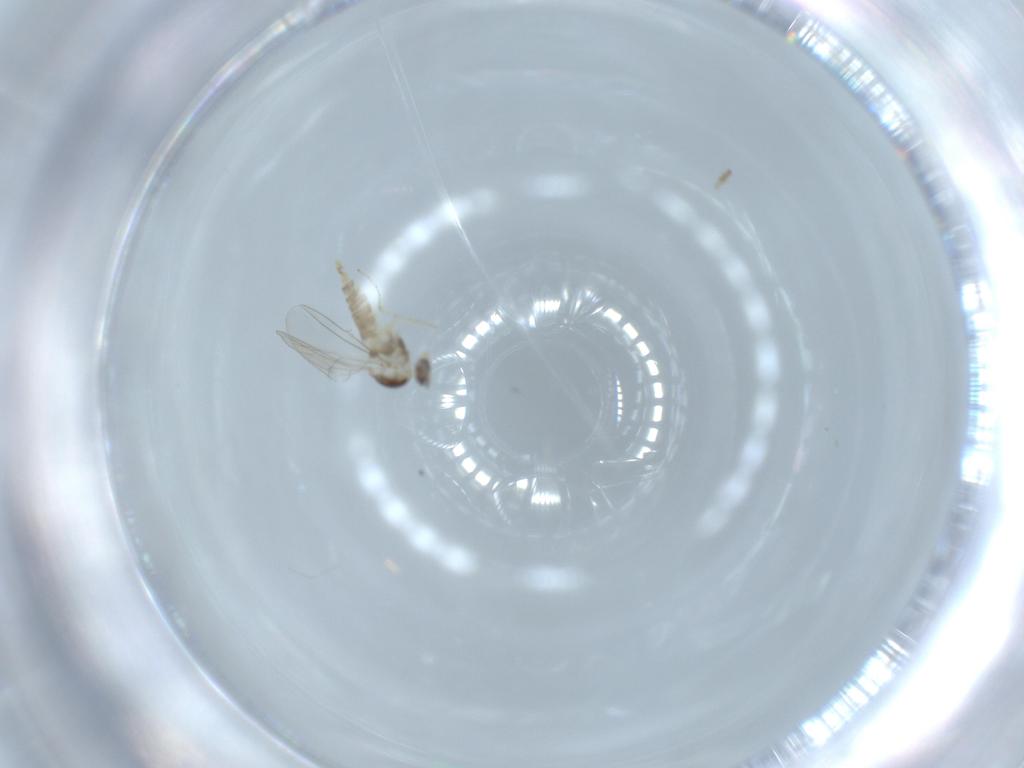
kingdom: Animalia
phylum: Arthropoda
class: Insecta
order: Diptera
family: Cecidomyiidae
